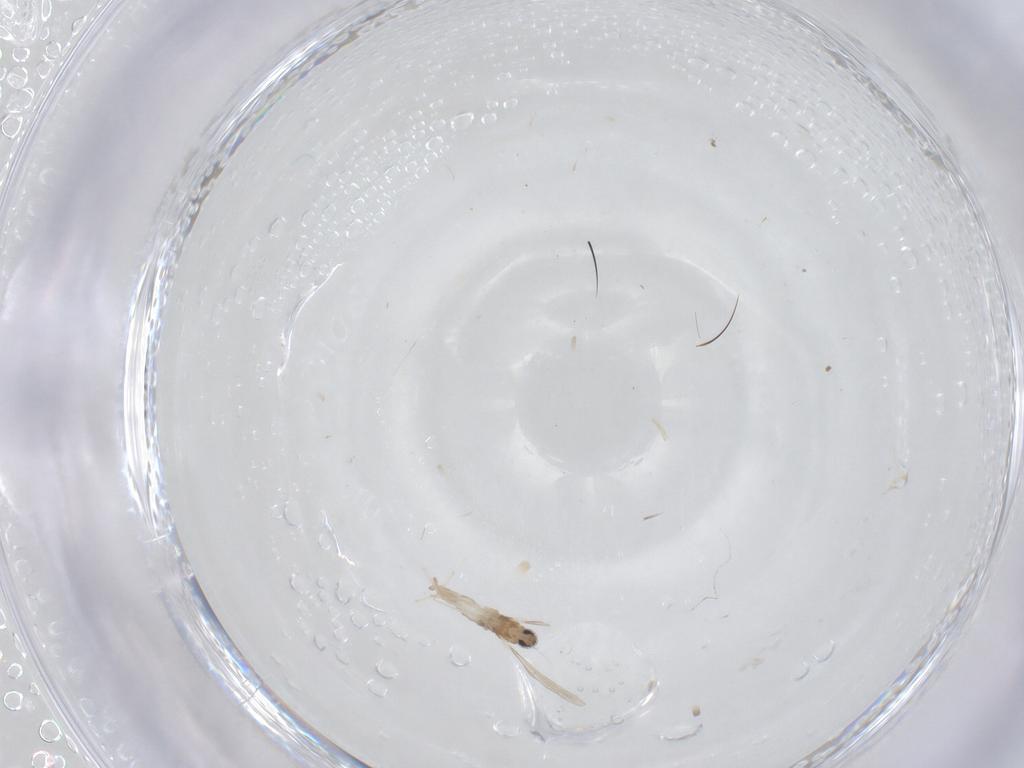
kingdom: Animalia
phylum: Arthropoda
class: Insecta
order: Diptera
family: Cecidomyiidae
